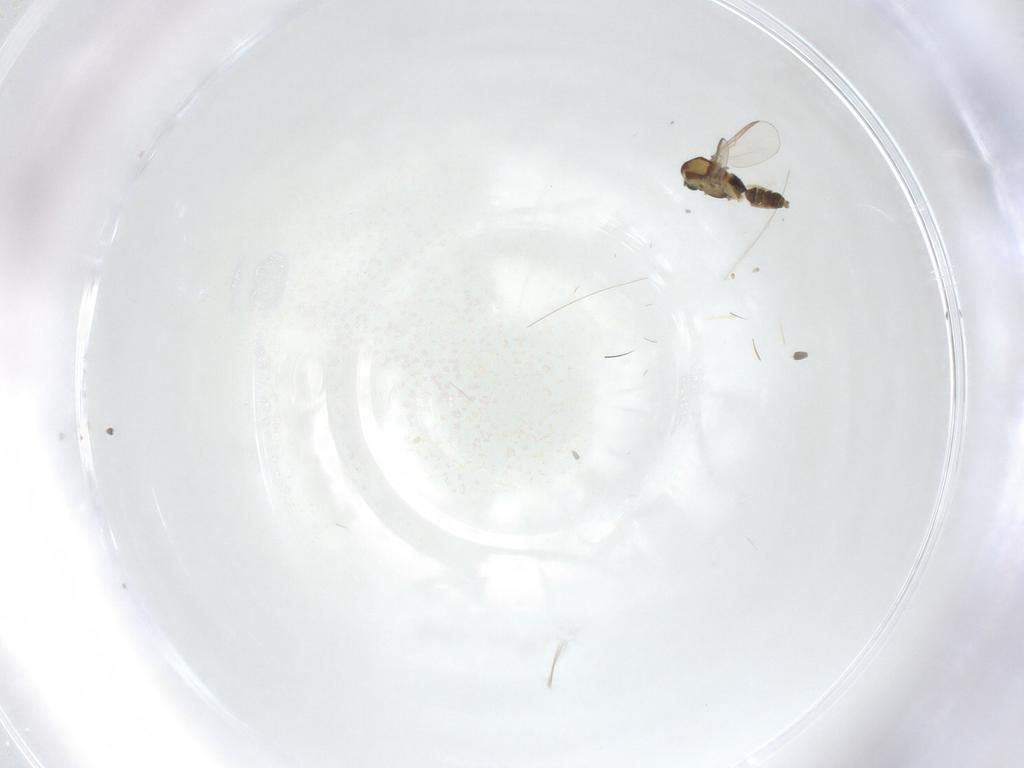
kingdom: Animalia
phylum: Arthropoda
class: Insecta
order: Diptera
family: Chironomidae
